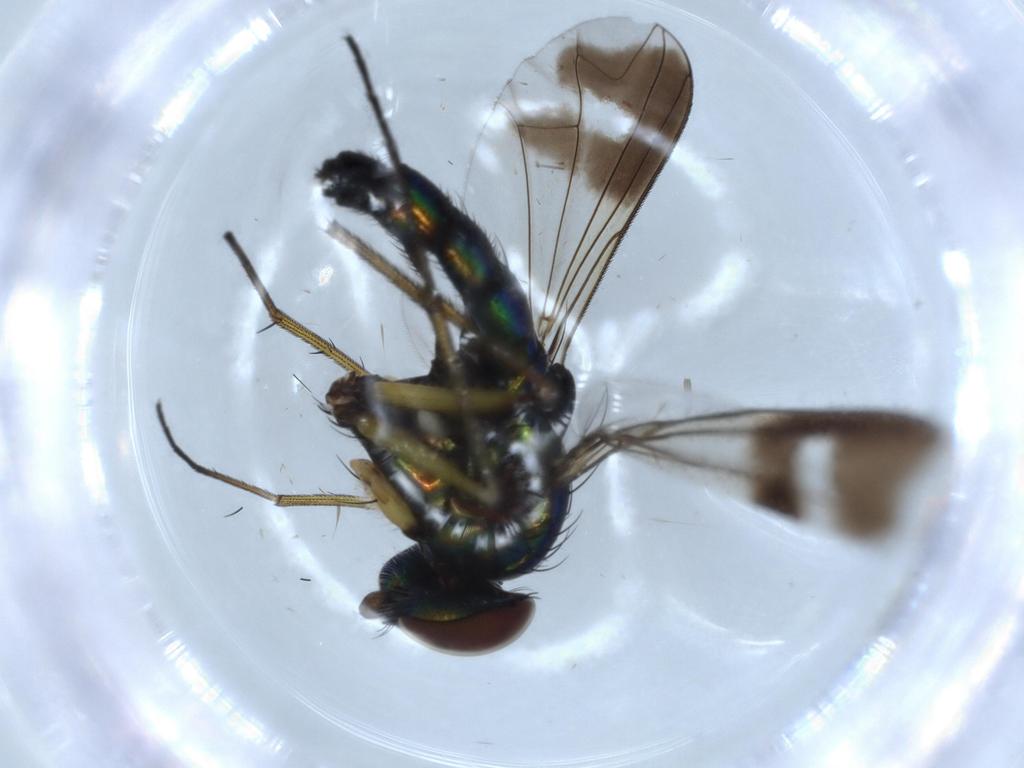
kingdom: Animalia
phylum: Arthropoda
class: Insecta
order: Diptera
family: Dolichopodidae
